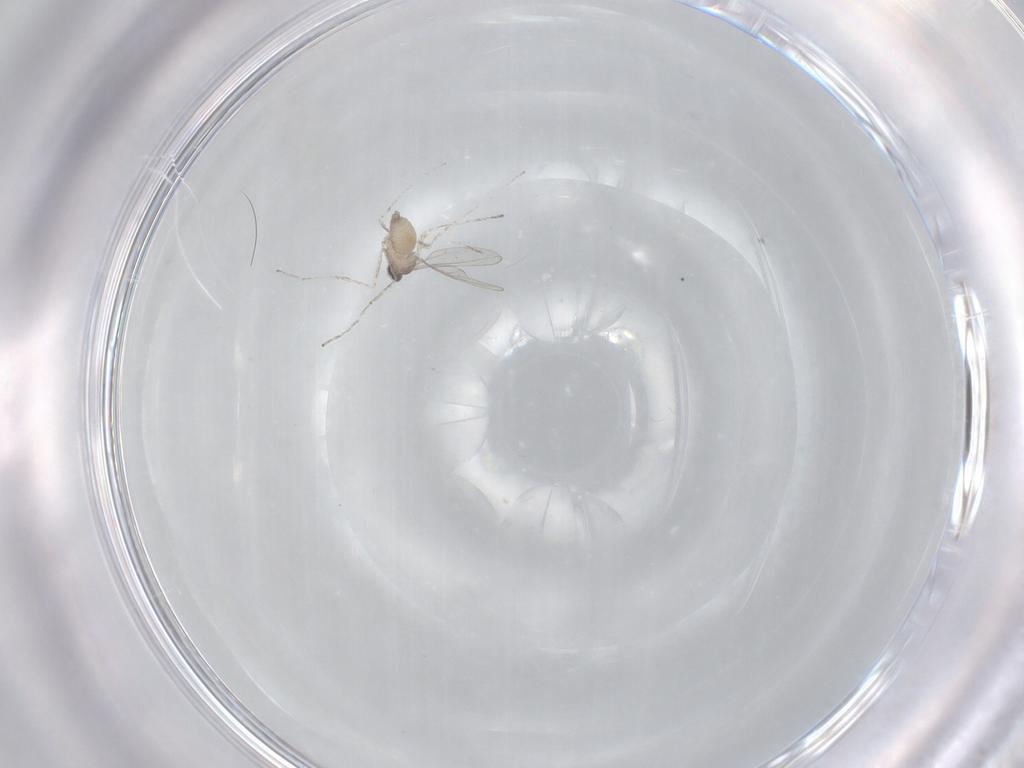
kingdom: Animalia
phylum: Arthropoda
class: Insecta
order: Diptera
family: Cecidomyiidae
